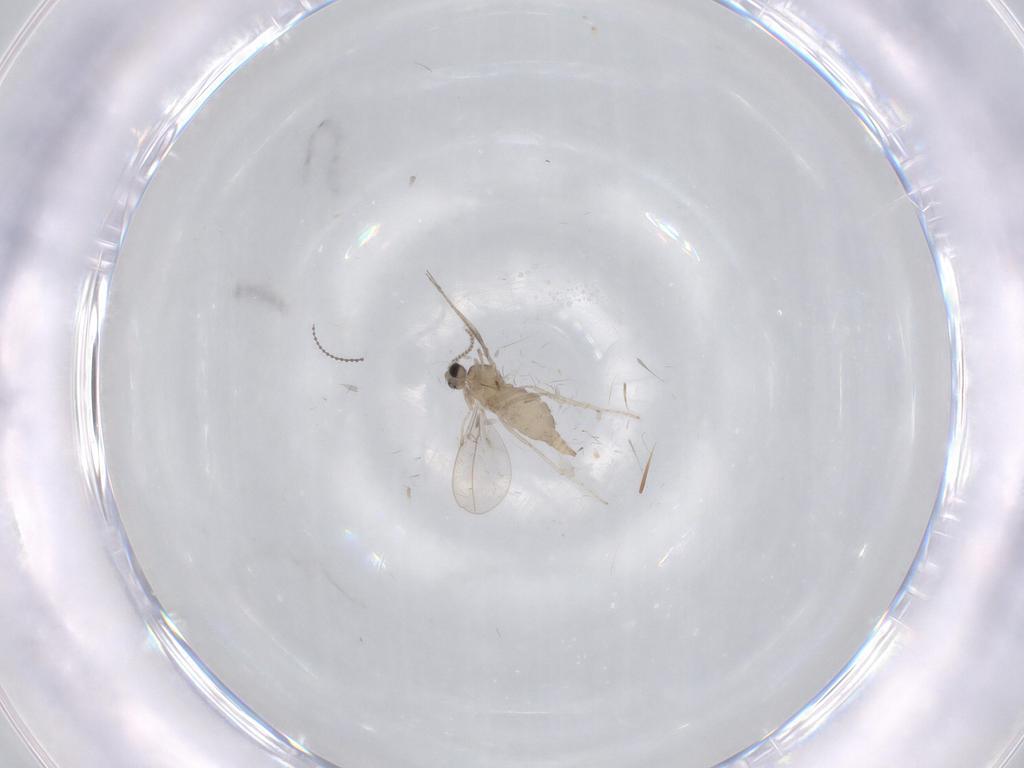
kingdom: Animalia
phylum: Arthropoda
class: Insecta
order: Diptera
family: Cecidomyiidae
